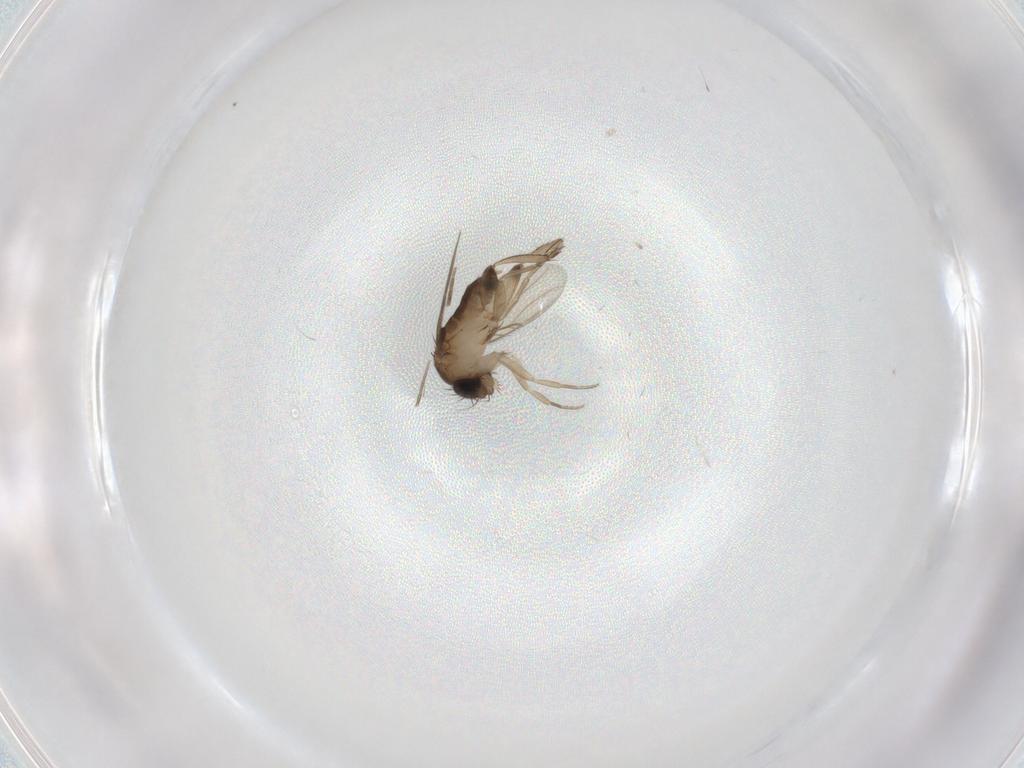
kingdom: Animalia
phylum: Arthropoda
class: Insecta
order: Diptera
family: Phoridae
